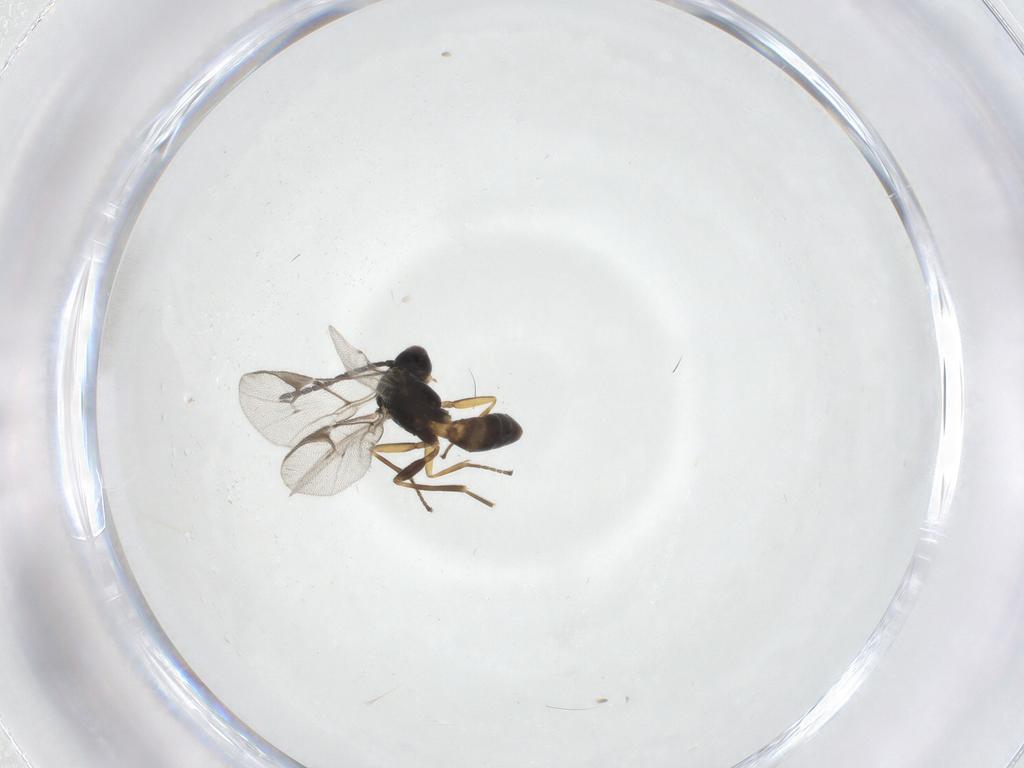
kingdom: Animalia
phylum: Arthropoda
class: Insecta
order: Hymenoptera
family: Braconidae
